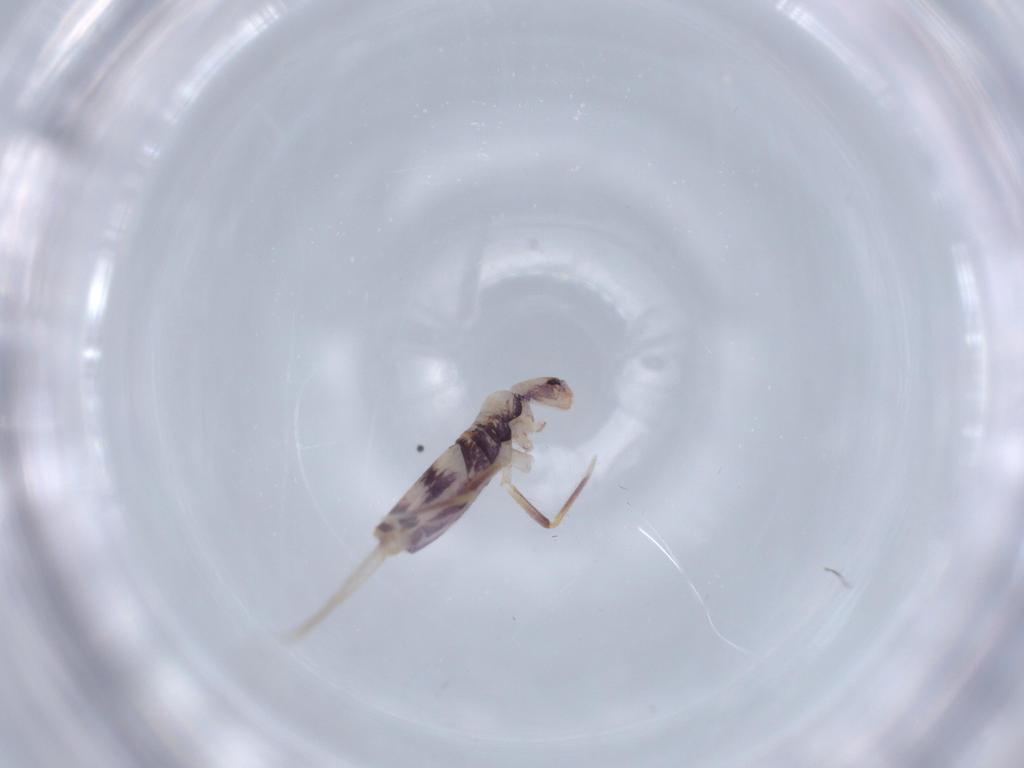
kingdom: Animalia
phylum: Arthropoda
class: Collembola
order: Entomobryomorpha
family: Entomobryidae
